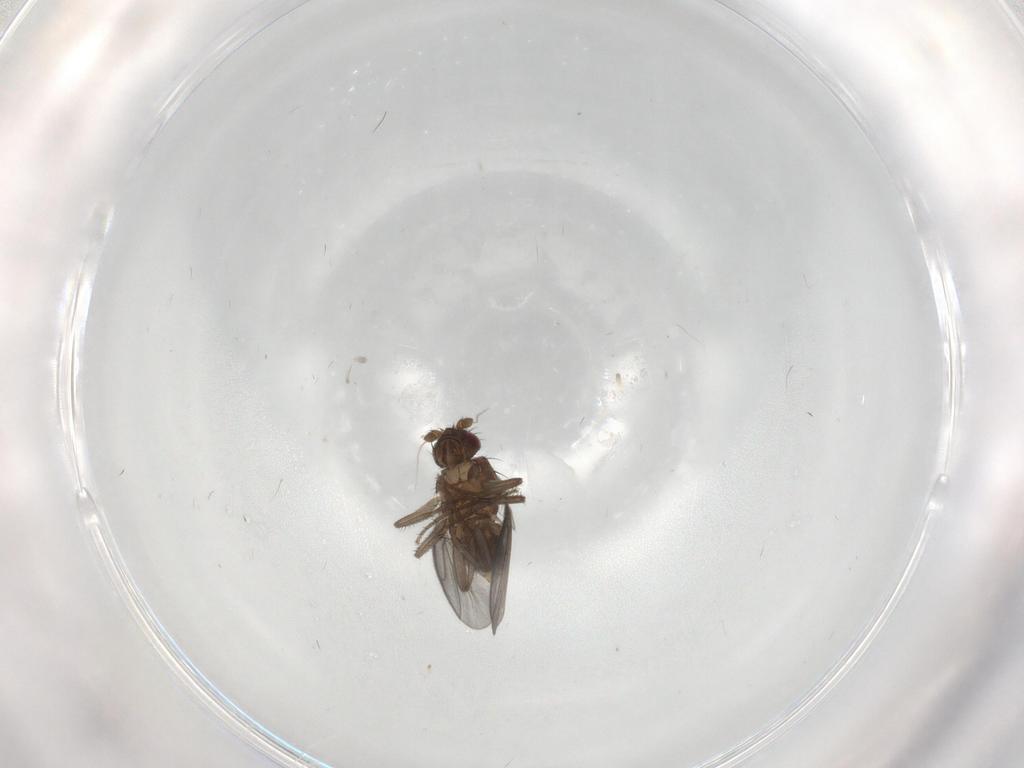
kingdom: Animalia
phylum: Arthropoda
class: Insecta
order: Diptera
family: Sphaeroceridae
